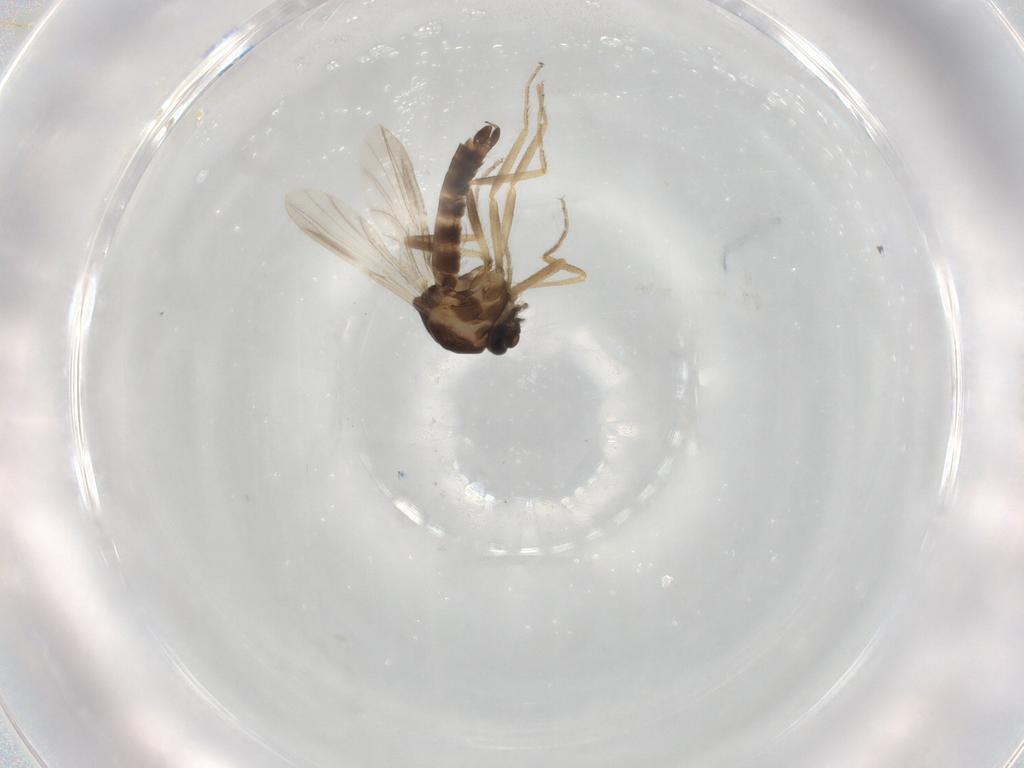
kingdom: Animalia
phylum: Arthropoda
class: Insecta
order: Diptera
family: Ceratopogonidae
